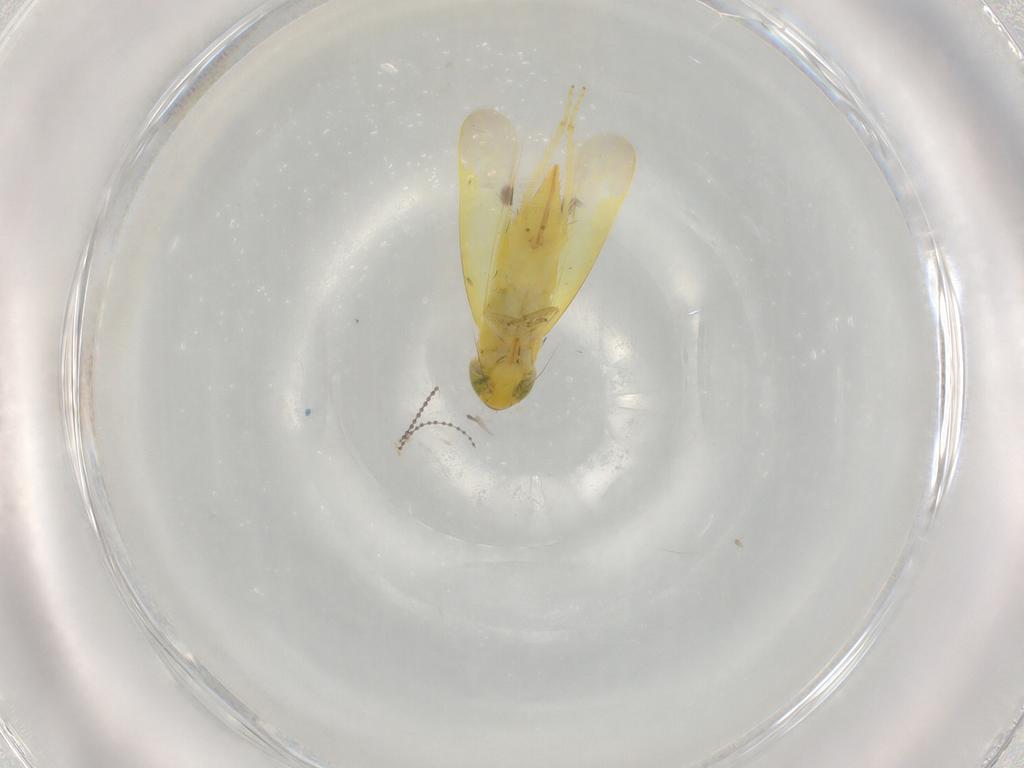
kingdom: Animalia
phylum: Arthropoda
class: Insecta
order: Hemiptera
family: Cicadellidae
